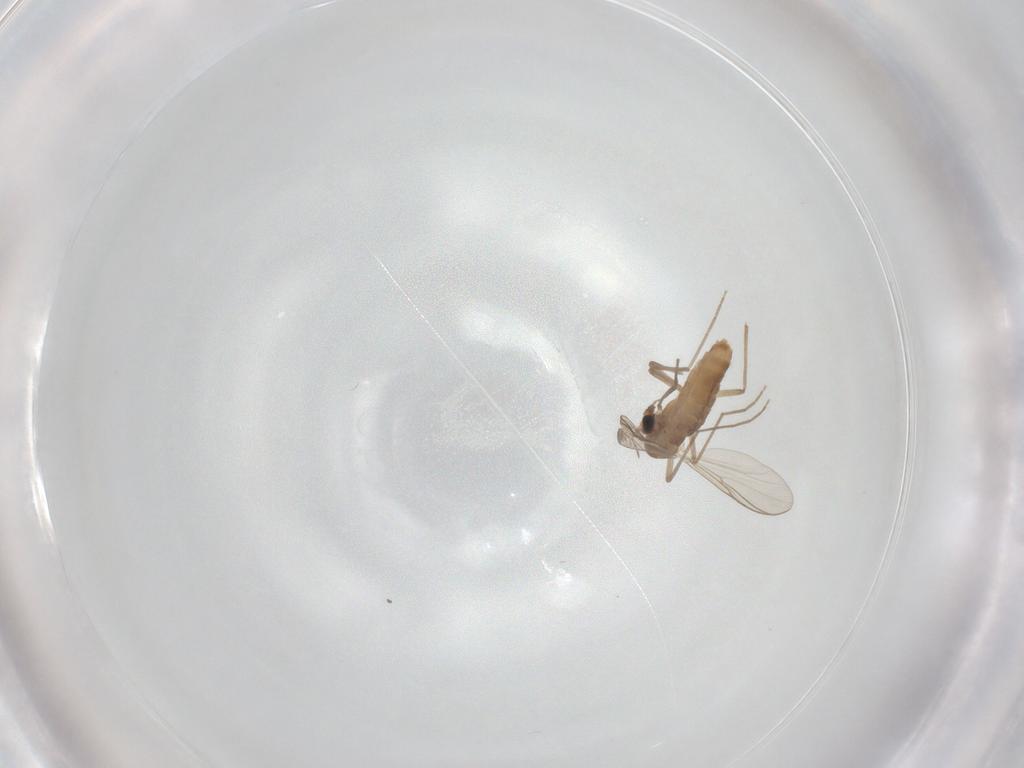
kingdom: Animalia
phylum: Arthropoda
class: Insecta
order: Diptera
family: Chironomidae
